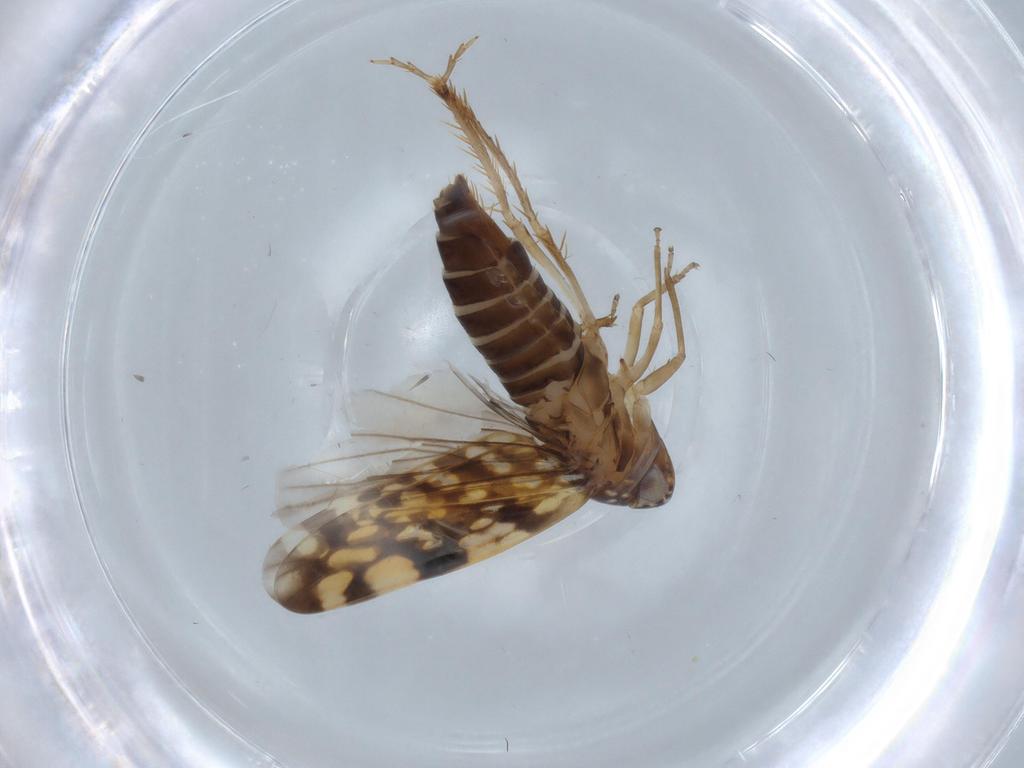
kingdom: Animalia
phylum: Arthropoda
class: Insecta
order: Hemiptera
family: Cicadellidae
